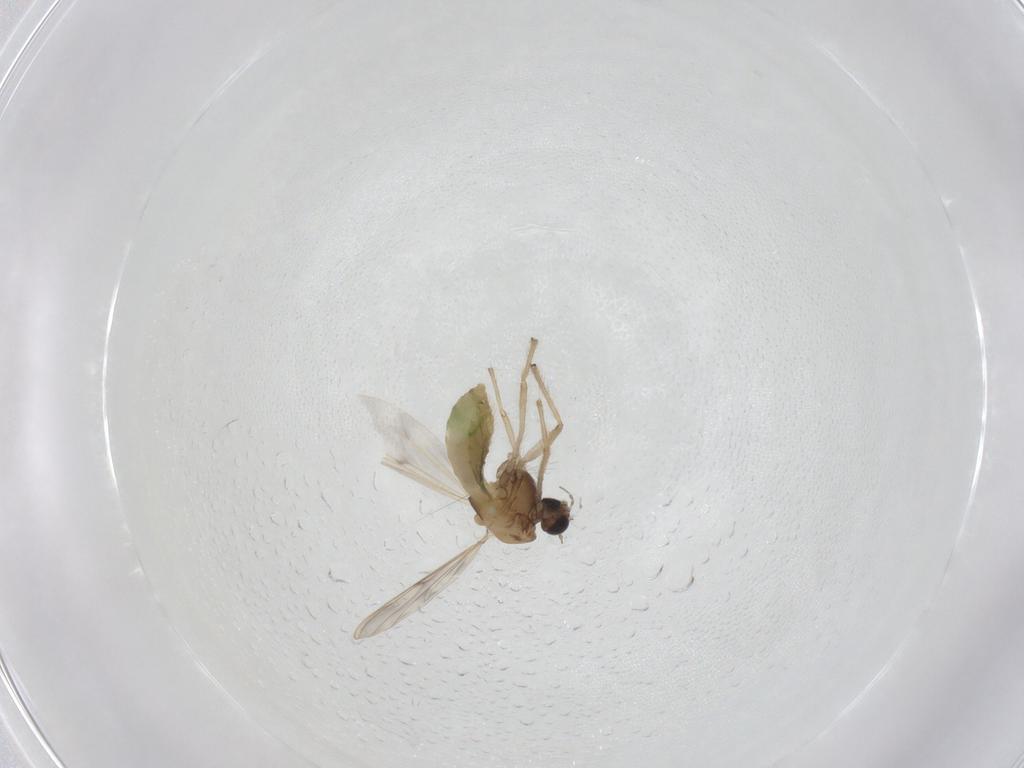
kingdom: Animalia
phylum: Arthropoda
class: Insecta
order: Diptera
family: Chironomidae
